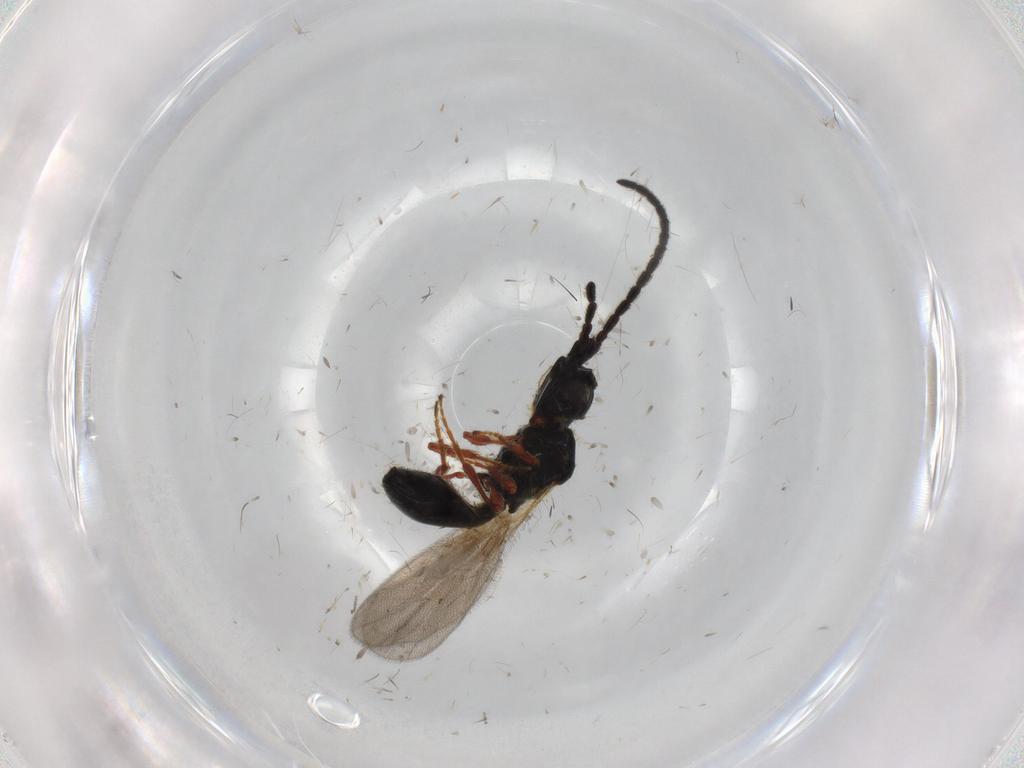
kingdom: Animalia
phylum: Arthropoda
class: Insecta
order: Hymenoptera
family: Diapriidae
